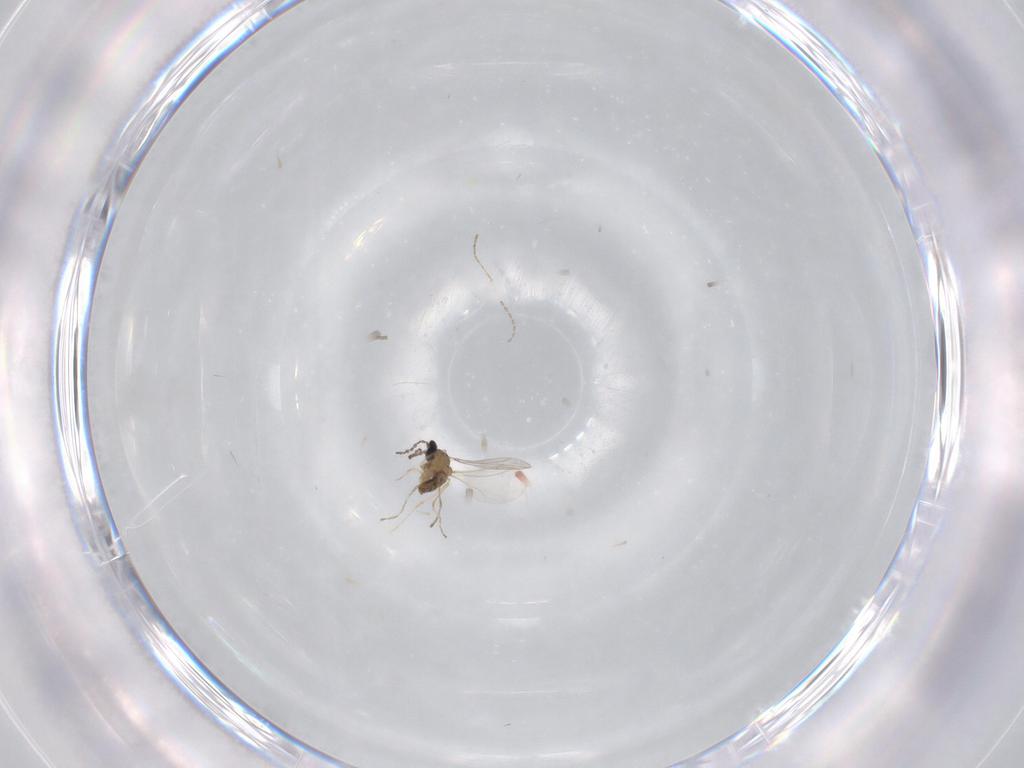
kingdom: Animalia
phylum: Arthropoda
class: Insecta
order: Diptera
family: Cecidomyiidae
